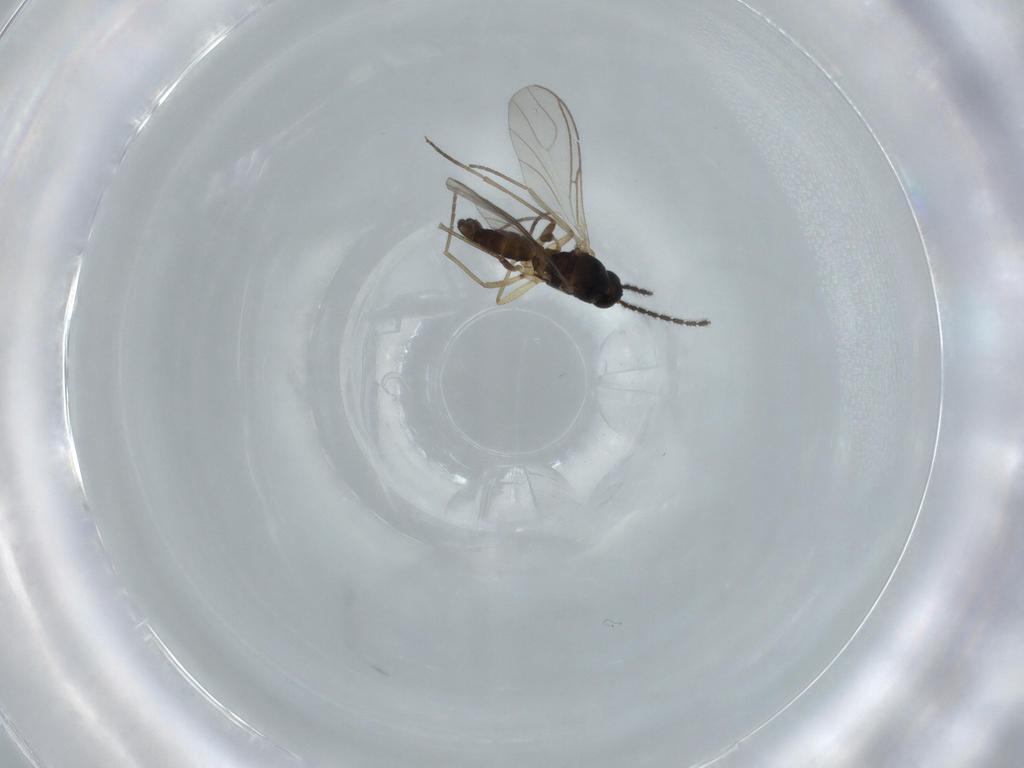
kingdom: Animalia
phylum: Arthropoda
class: Insecta
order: Diptera
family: Sciaridae
